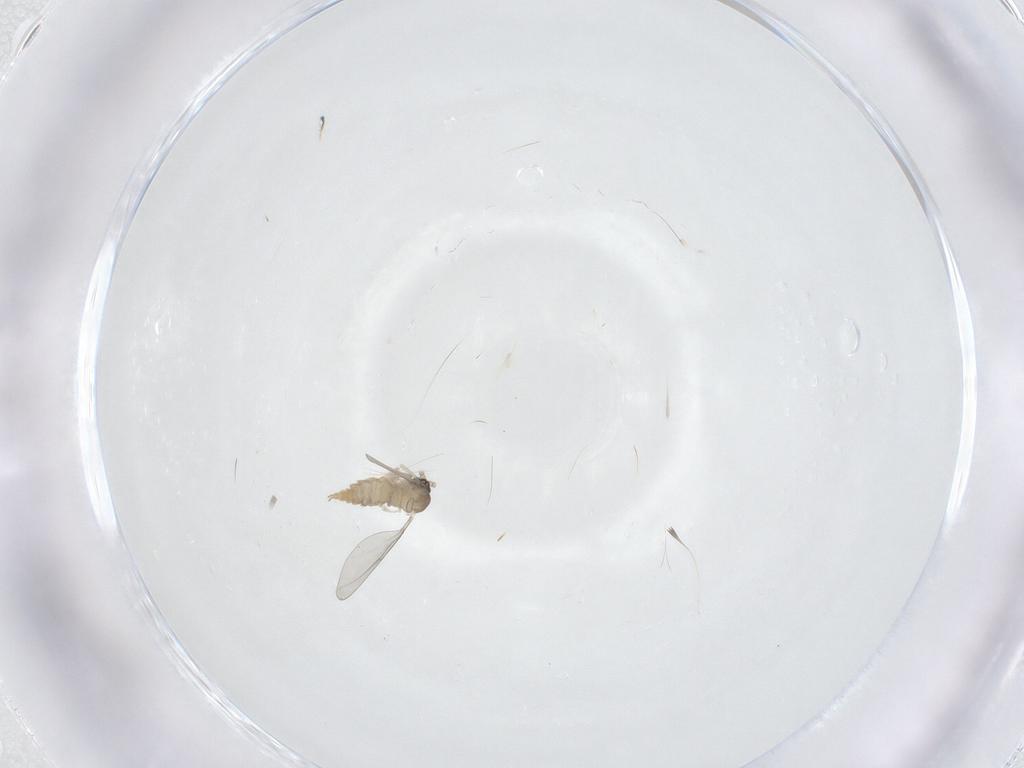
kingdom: Animalia
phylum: Arthropoda
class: Insecta
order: Diptera
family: Cecidomyiidae
